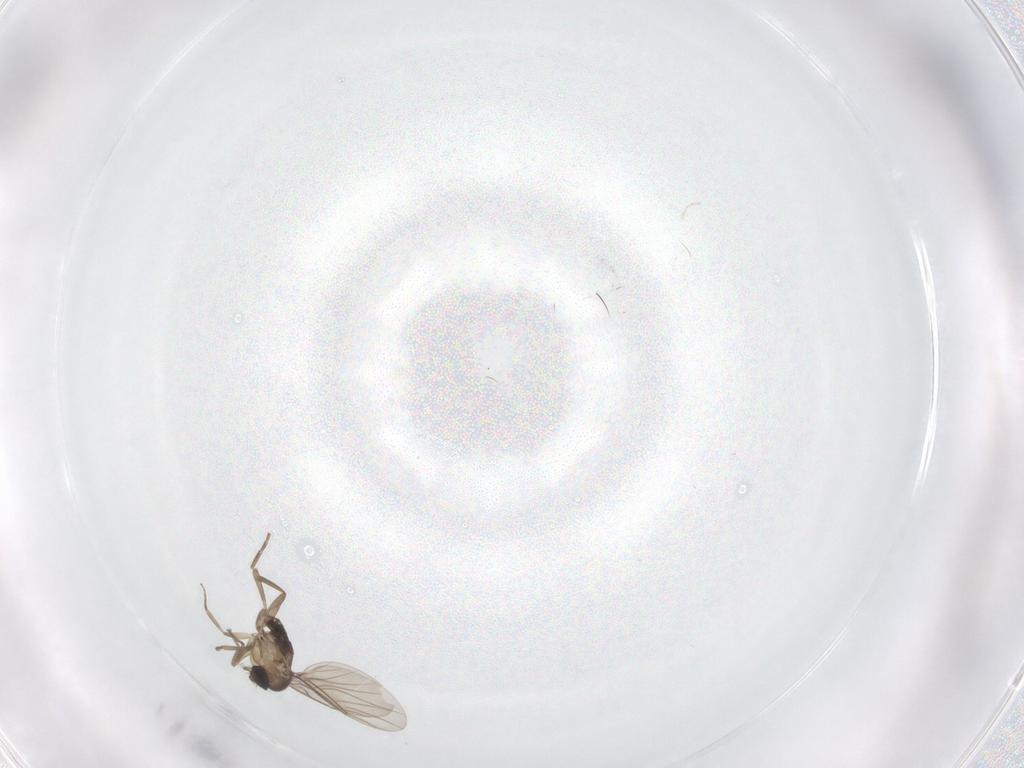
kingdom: Animalia
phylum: Arthropoda
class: Insecta
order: Diptera
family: Phoridae
